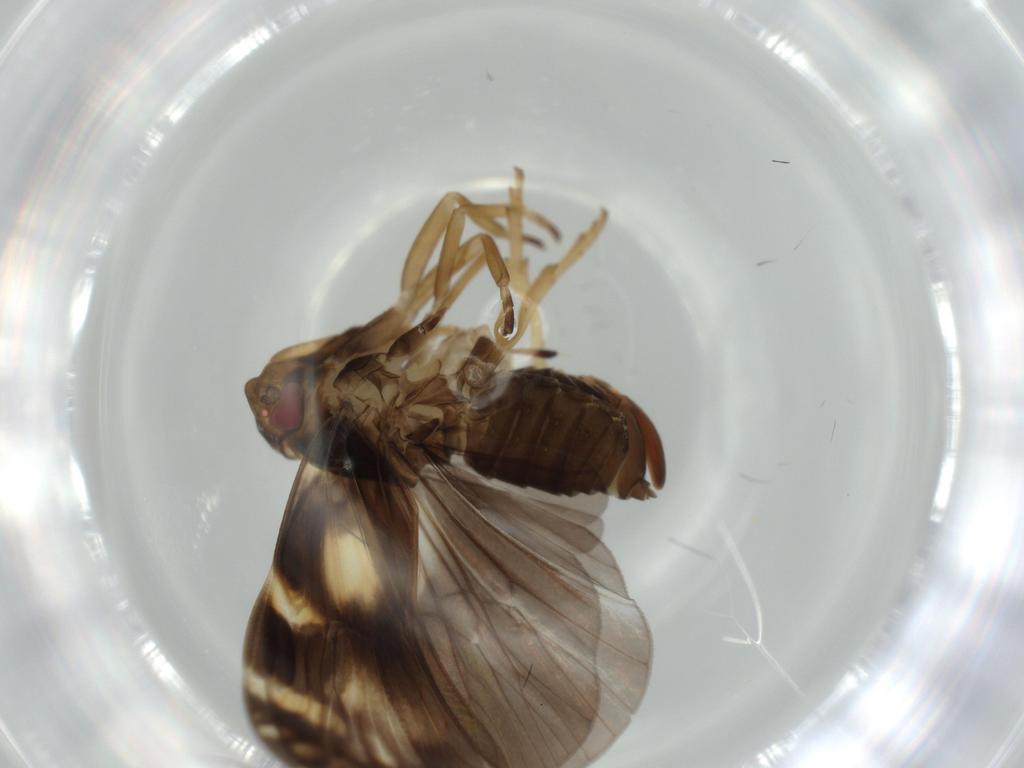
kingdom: Animalia
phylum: Arthropoda
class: Insecta
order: Hemiptera
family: Cixiidae
